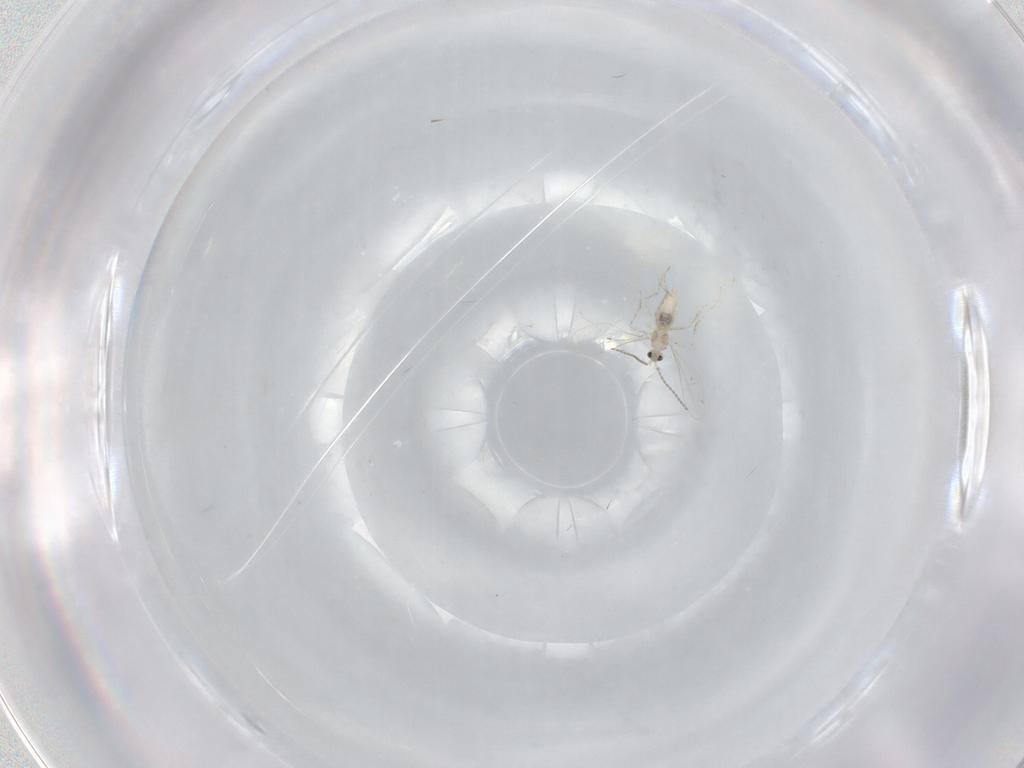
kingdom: Animalia
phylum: Arthropoda
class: Insecta
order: Diptera
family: Cecidomyiidae
